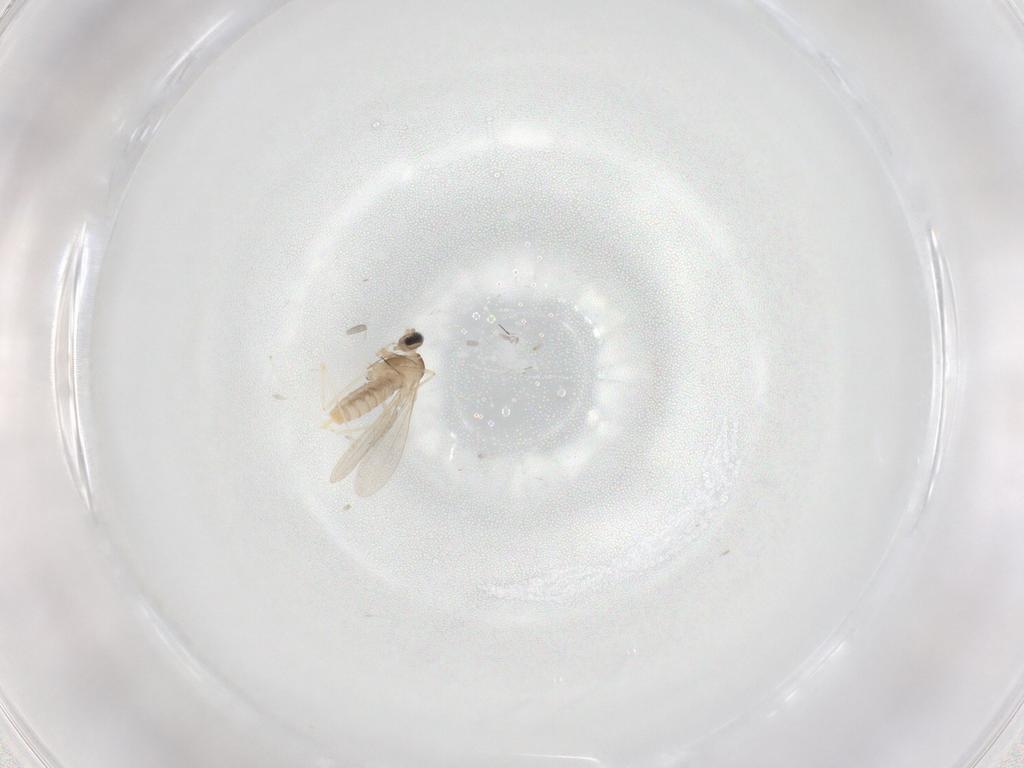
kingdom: Animalia
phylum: Arthropoda
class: Insecta
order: Diptera
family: Cecidomyiidae
